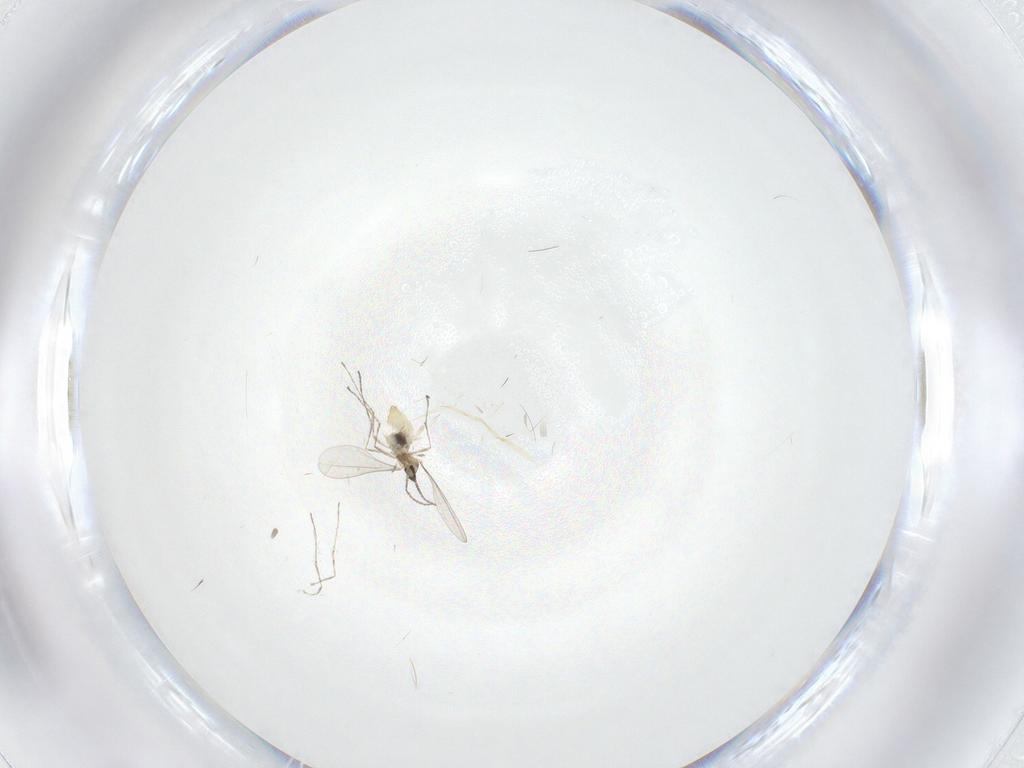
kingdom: Animalia
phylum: Arthropoda
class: Insecta
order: Diptera
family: Cecidomyiidae
